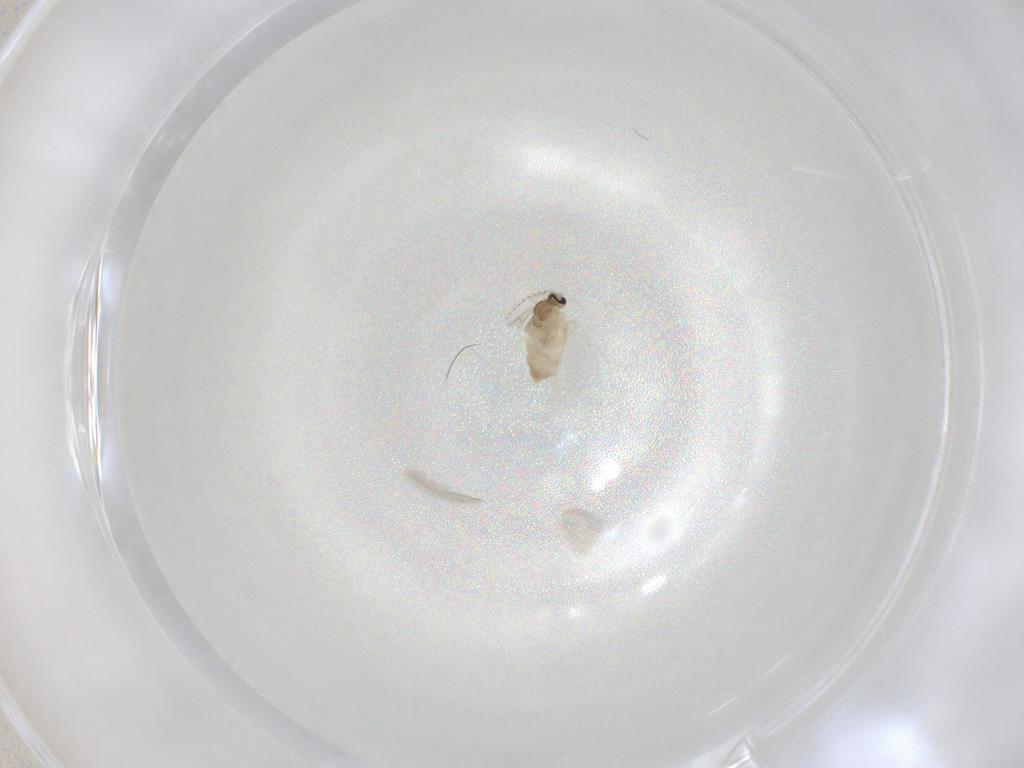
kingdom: Animalia
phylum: Arthropoda
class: Insecta
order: Diptera
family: Cecidomyiidae
